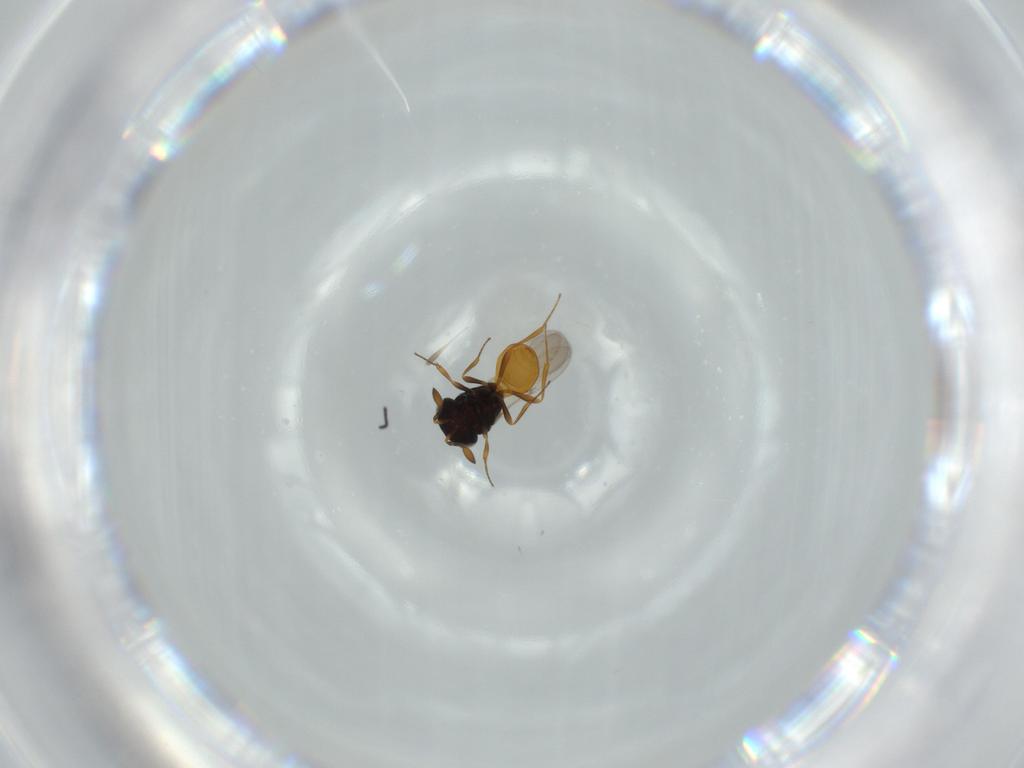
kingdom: Animalia
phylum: Arthropoda
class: Insecta
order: Hymenoptera
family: Scelionidae
